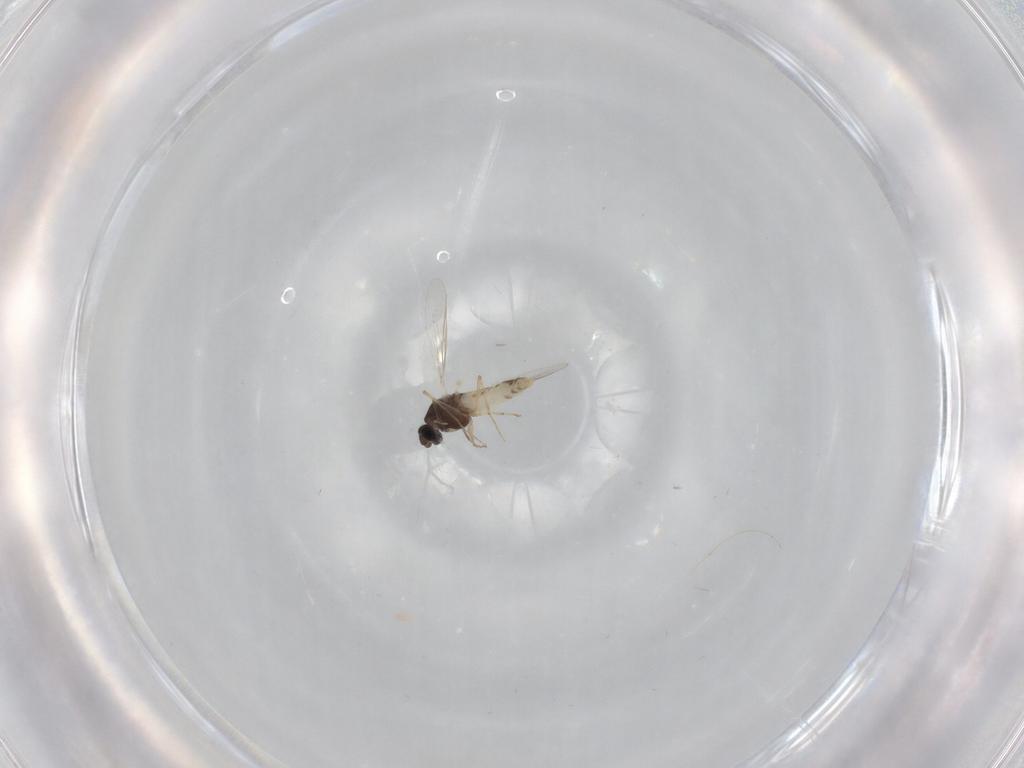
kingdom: Animalia
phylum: Arthropoda
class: Insecta
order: Diptera
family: Chironomidae
